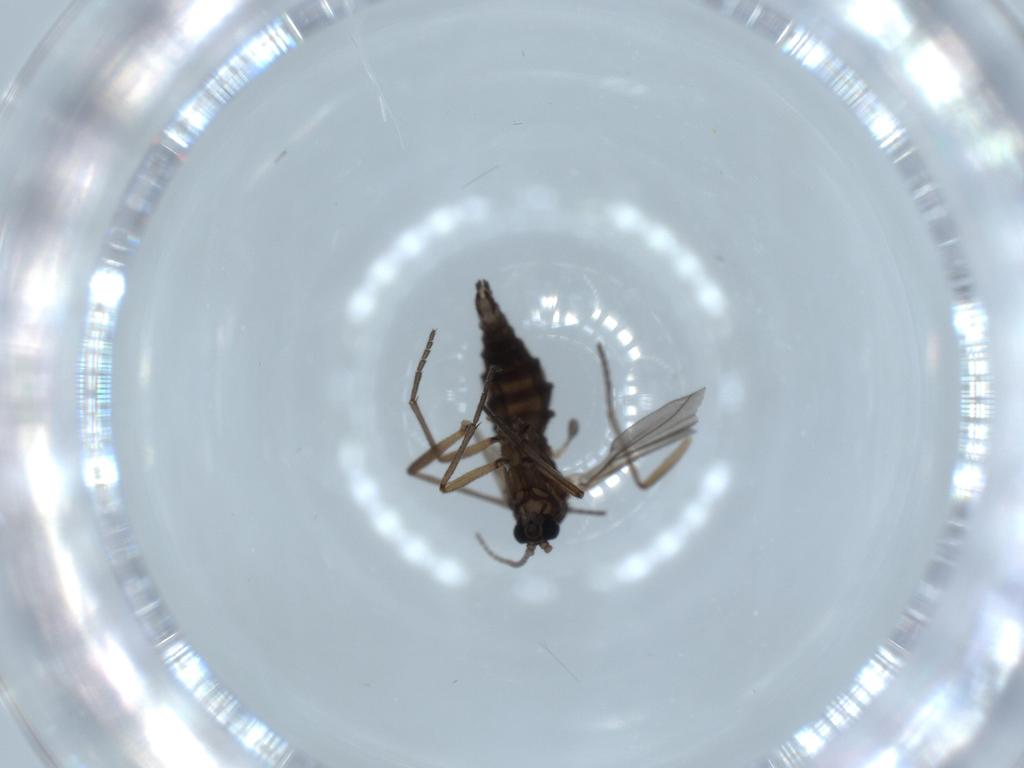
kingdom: Animalia
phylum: Arthropoda
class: Insecta
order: Diptera
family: Sciaridae
